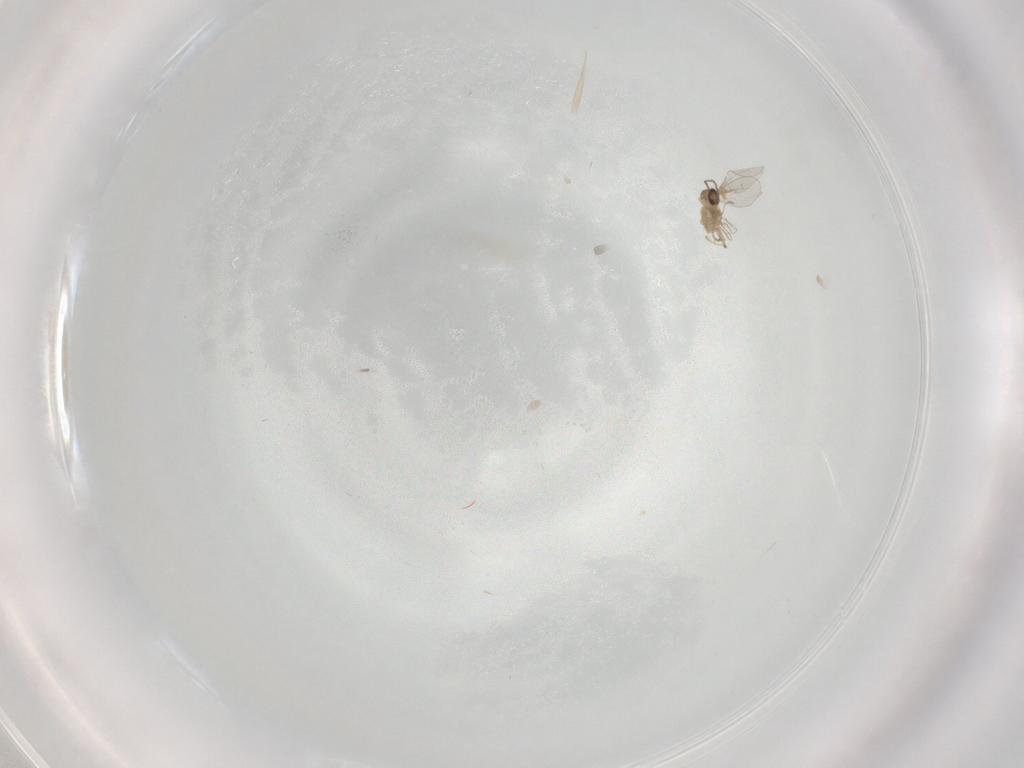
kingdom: Animalia
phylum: Arthropoda
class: Insecta
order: Diptera
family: Cecidomyiidae
